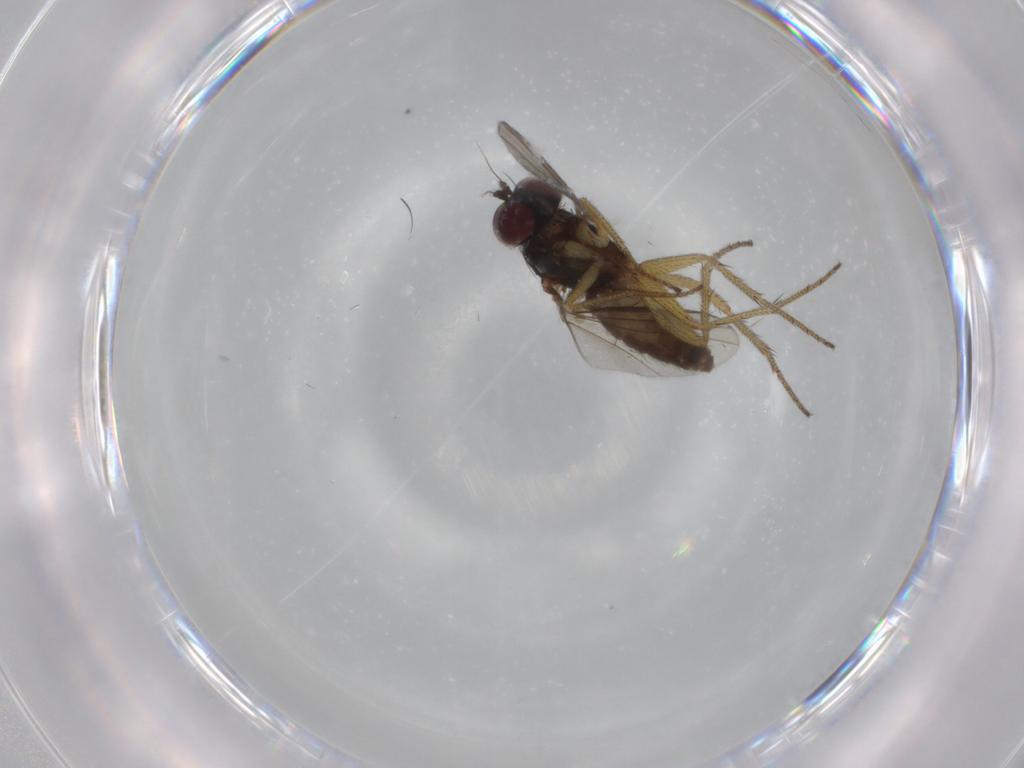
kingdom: Animalia
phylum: Arthropoda
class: Insecta
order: Diptera
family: Dolichopodidae
